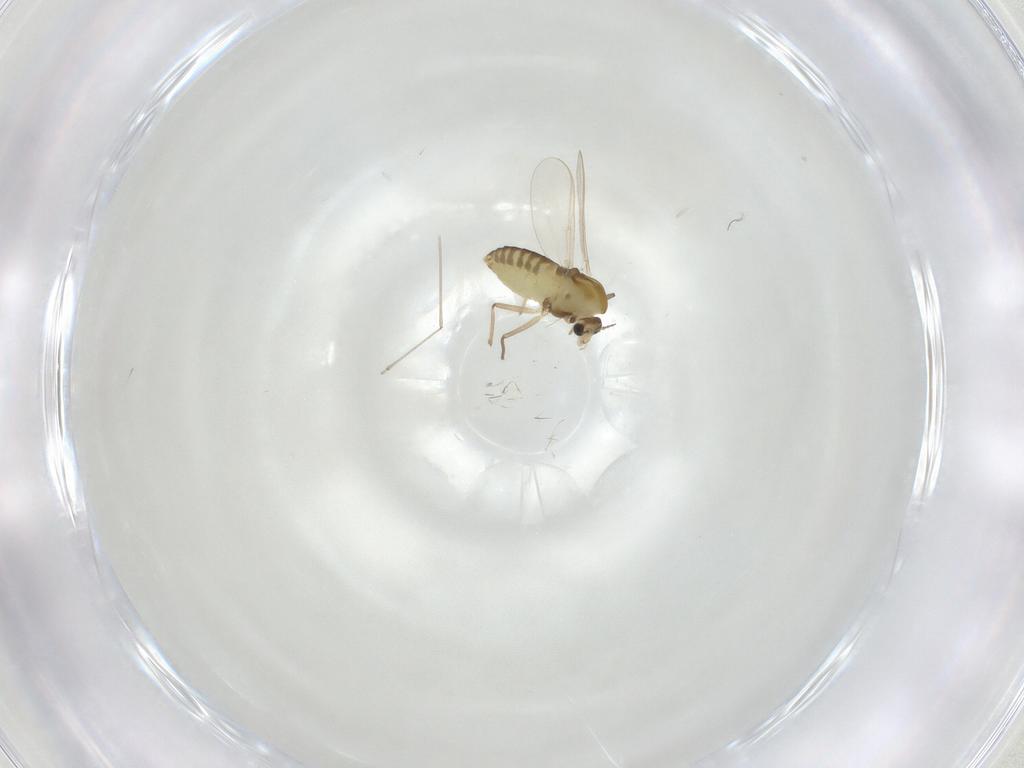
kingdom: Animalia
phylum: Arthropoda
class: Insecta
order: Diptera
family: Chironomidae
